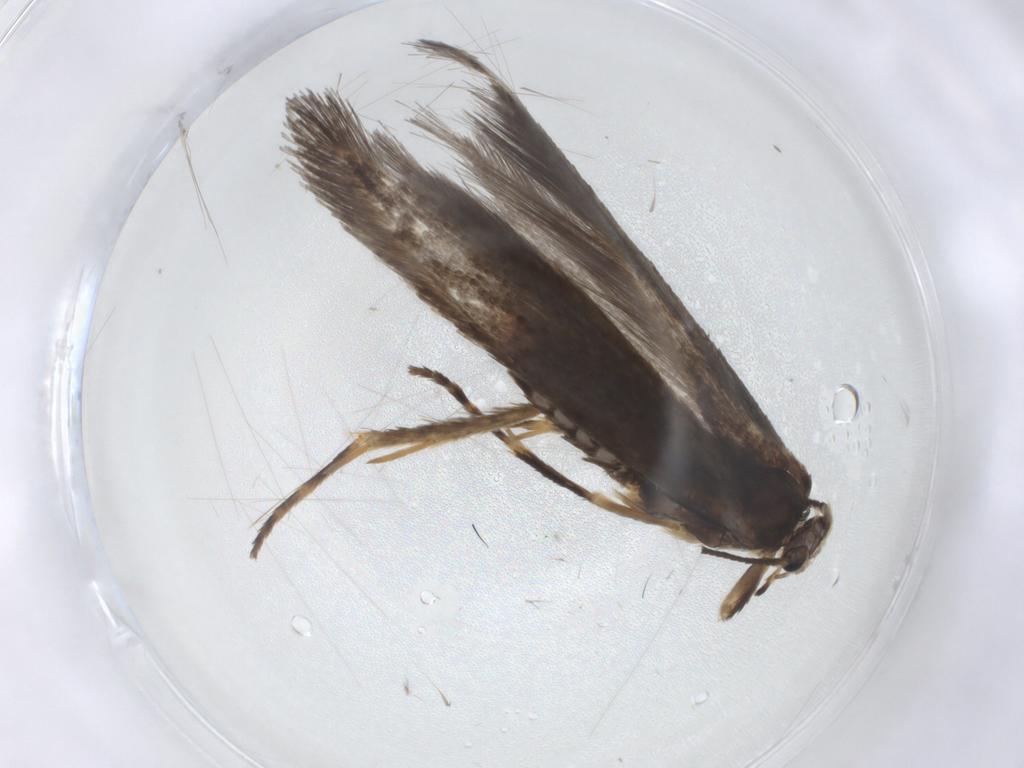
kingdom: Animalia
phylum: Arthropoda
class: Insecta
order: Lepidoptera
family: Nepticulidae
